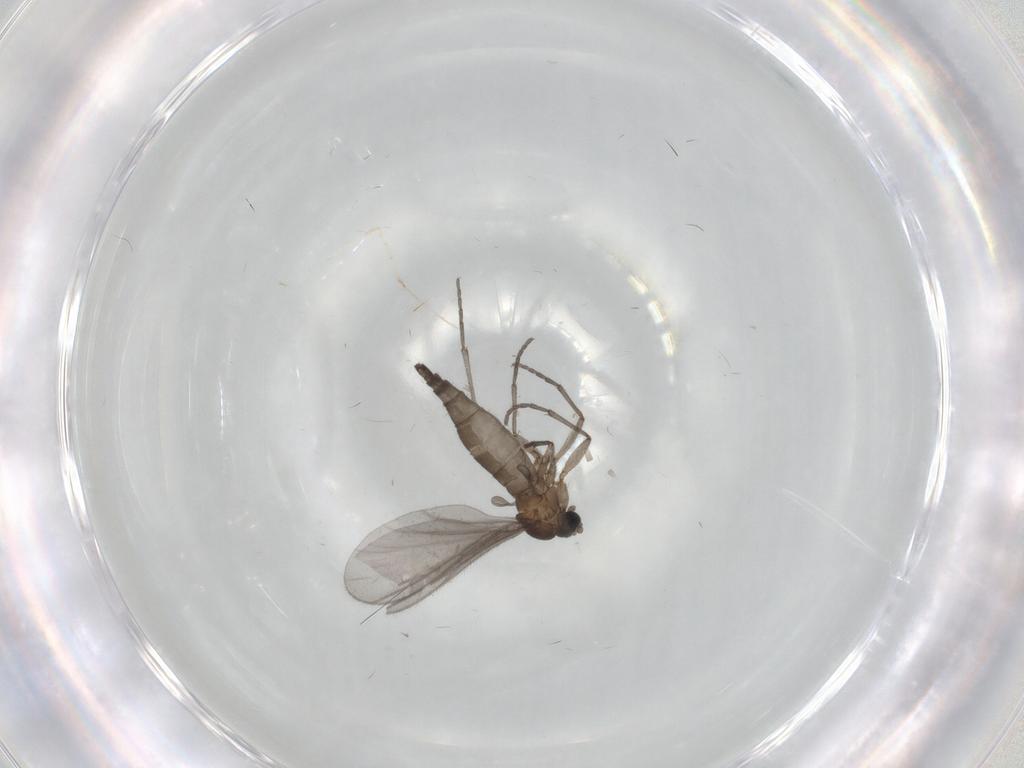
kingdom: Animalia
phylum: Arthropoda
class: Insecta
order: Diptera
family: Sciaridae
